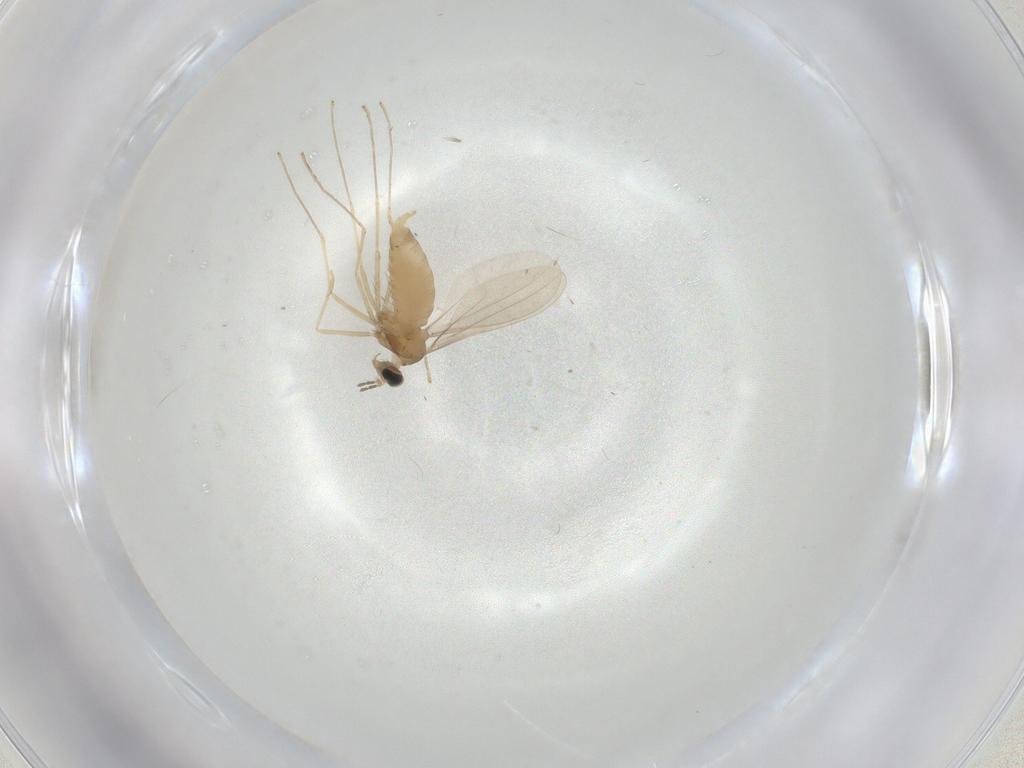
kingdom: Animalia
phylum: Arthropoda
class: Insecta
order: Diptera
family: Cecidomyiidae
